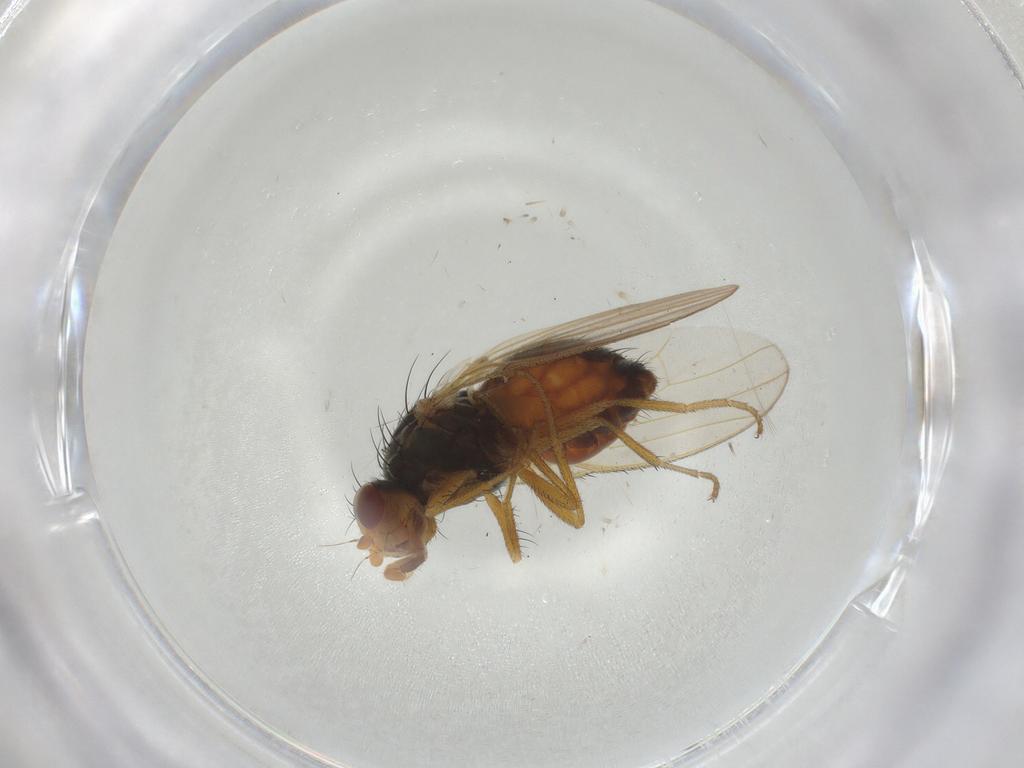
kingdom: Animalia
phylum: Arthropoda
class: Insecta
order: Diptera
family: Heleomyzidae
